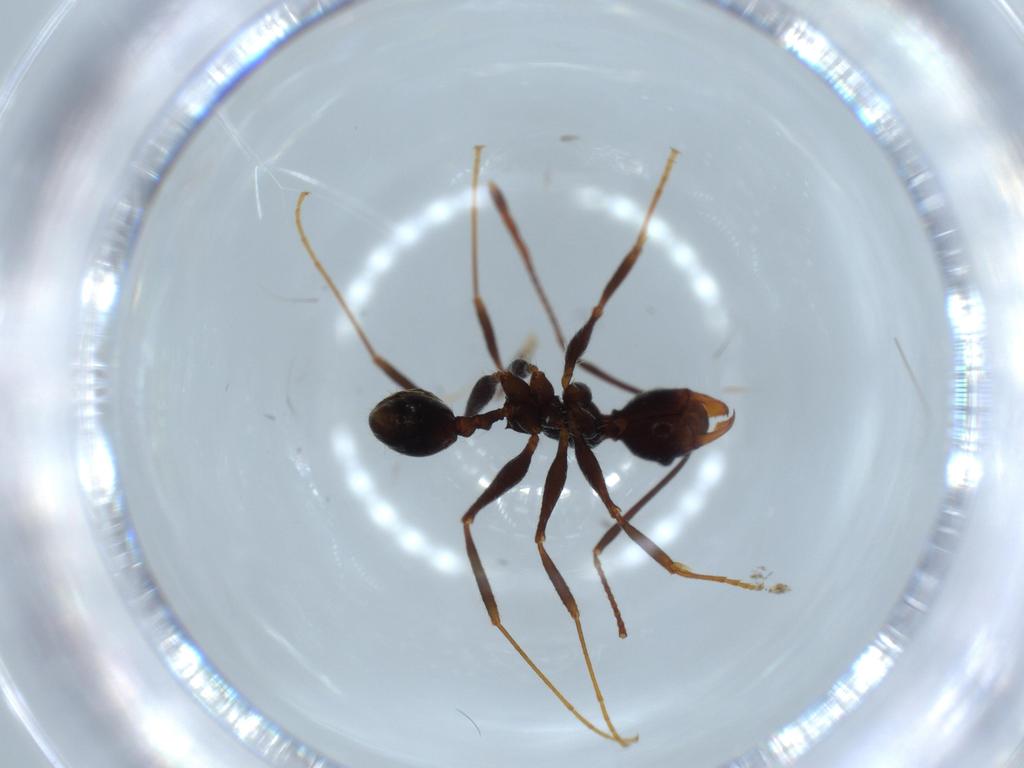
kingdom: Animalia
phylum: Arthropoda
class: Insecta
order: Hymenoptera
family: Formicidae
